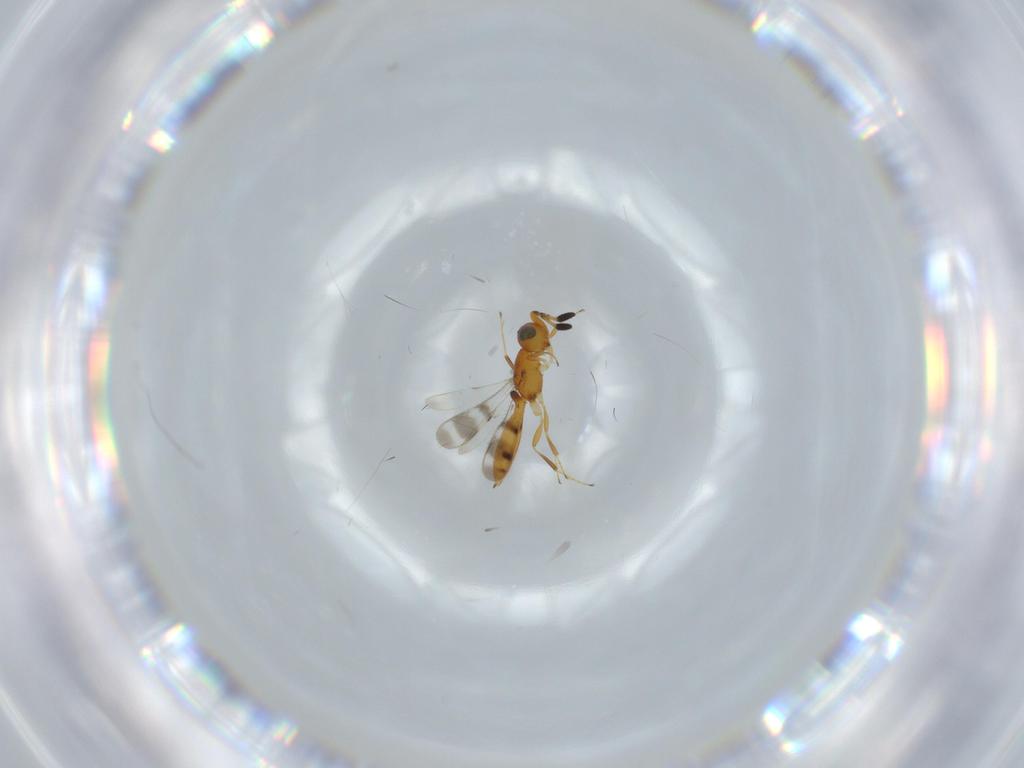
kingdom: Animalia
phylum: Arthropoda
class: Insecta
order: Hymenoptera
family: Scelionidae
